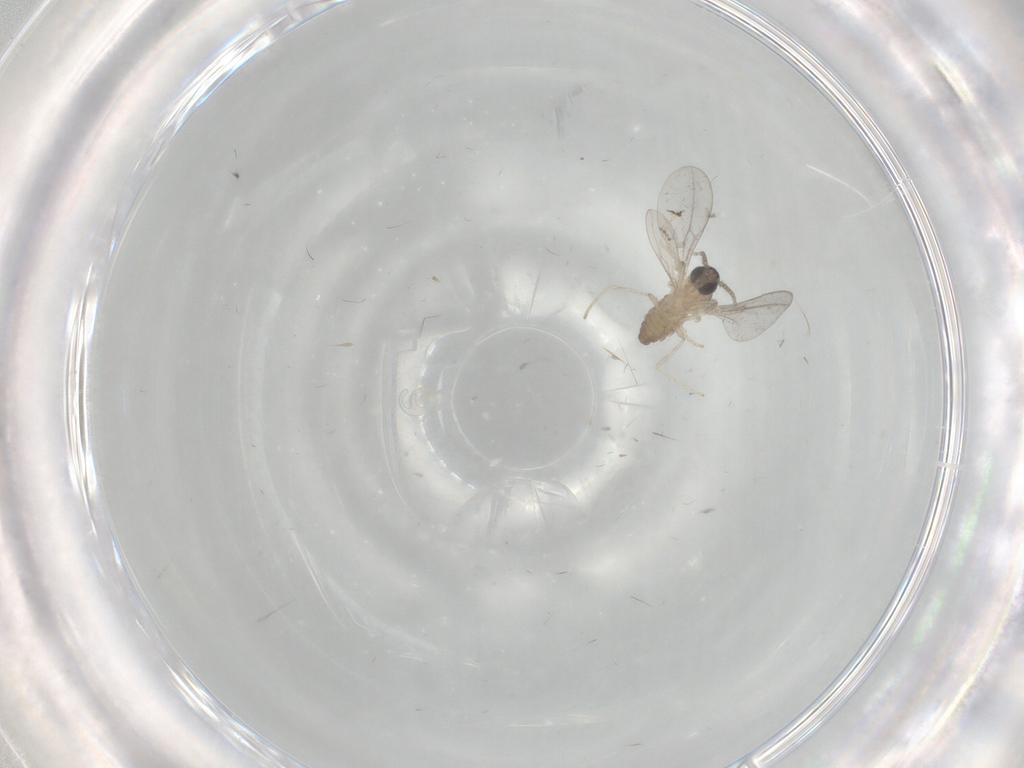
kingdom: Animalia
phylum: Arthropoda
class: Insecta
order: Diptera
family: Cecidomyiidae
